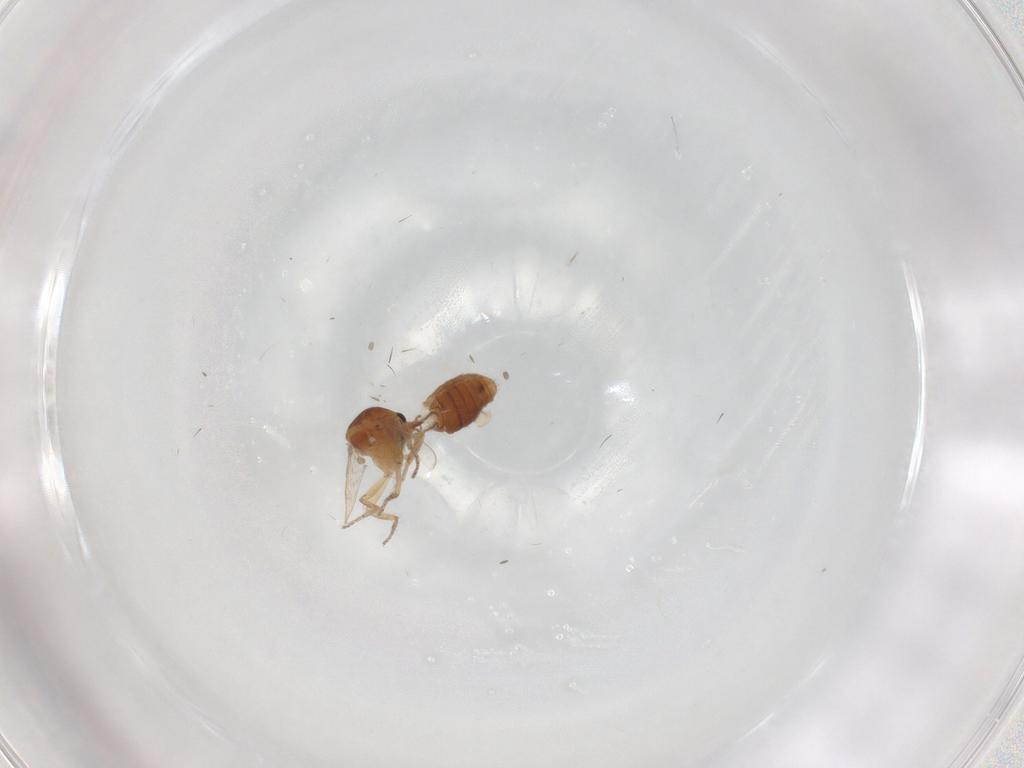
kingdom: Animalia
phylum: Arthropoda
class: Insecta
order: Diptera
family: Ceratopogonidae
